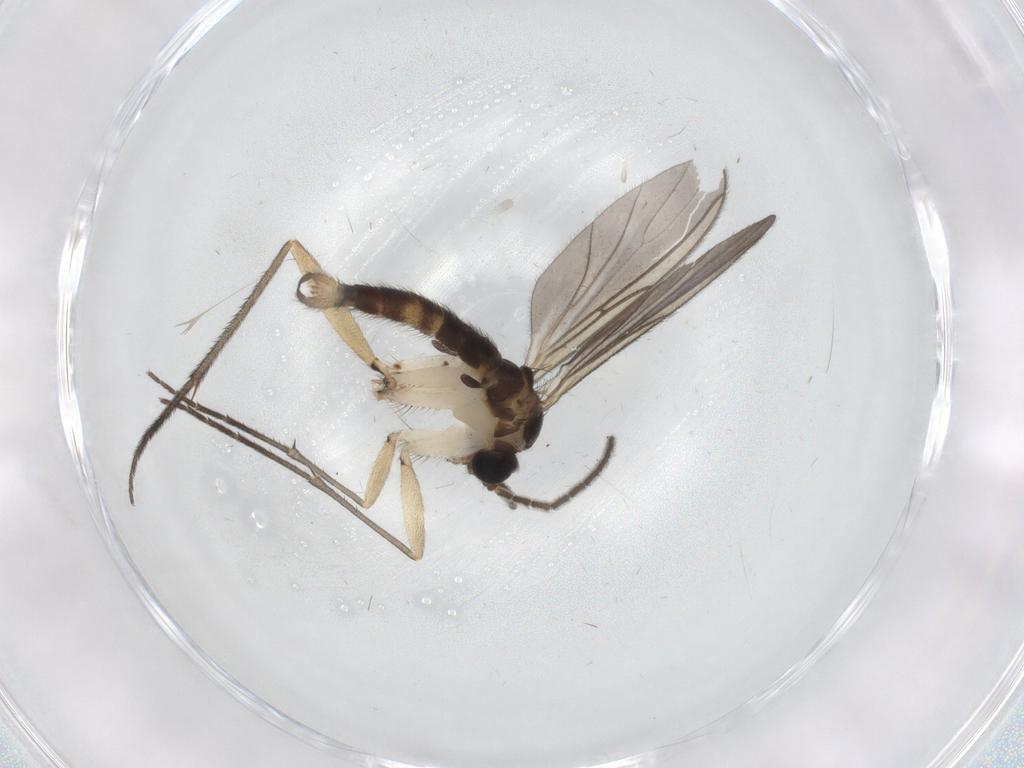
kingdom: Animalia
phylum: Arthropoda
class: Insecta
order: Diptera
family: Sciaridae
